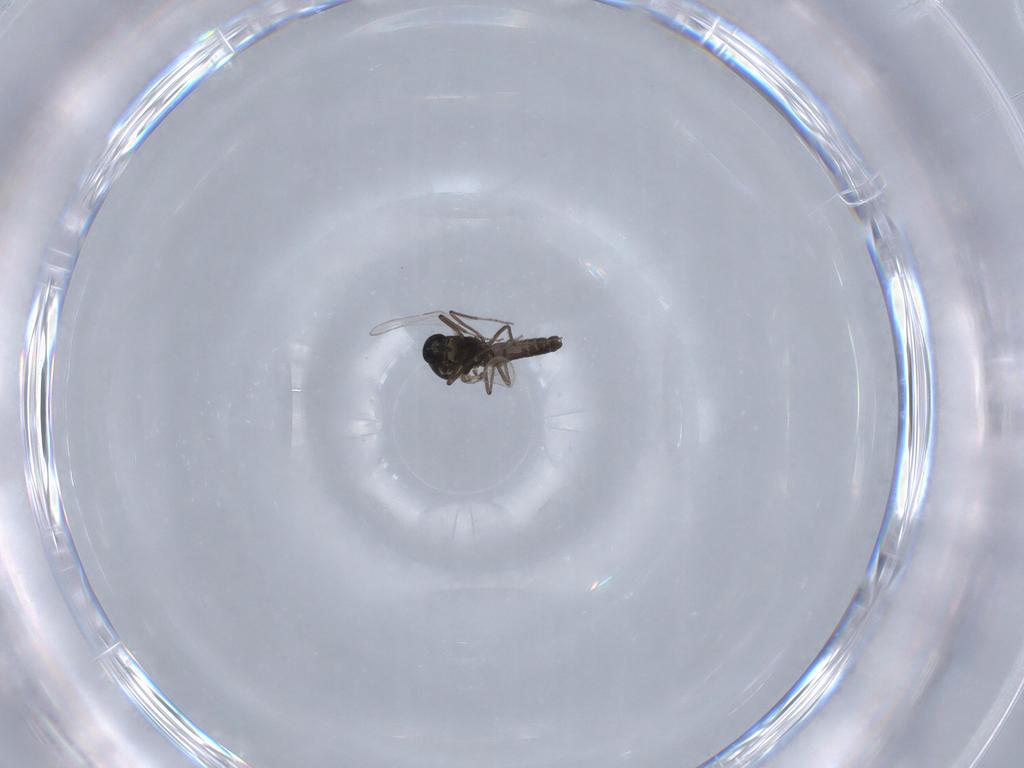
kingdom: Animalia
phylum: Arthropoda
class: Insecta
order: Diptera
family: Ceratopogonidae
